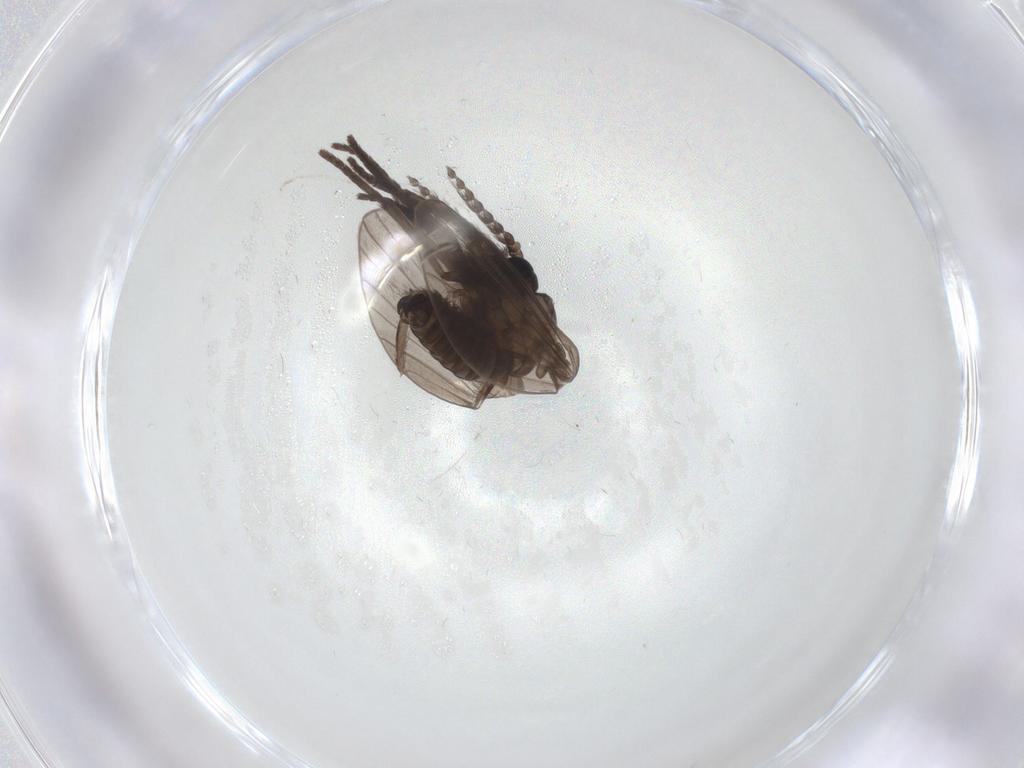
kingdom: Animalia
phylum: Arthropoda
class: Insecta
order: Diptera
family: Psychodidae
